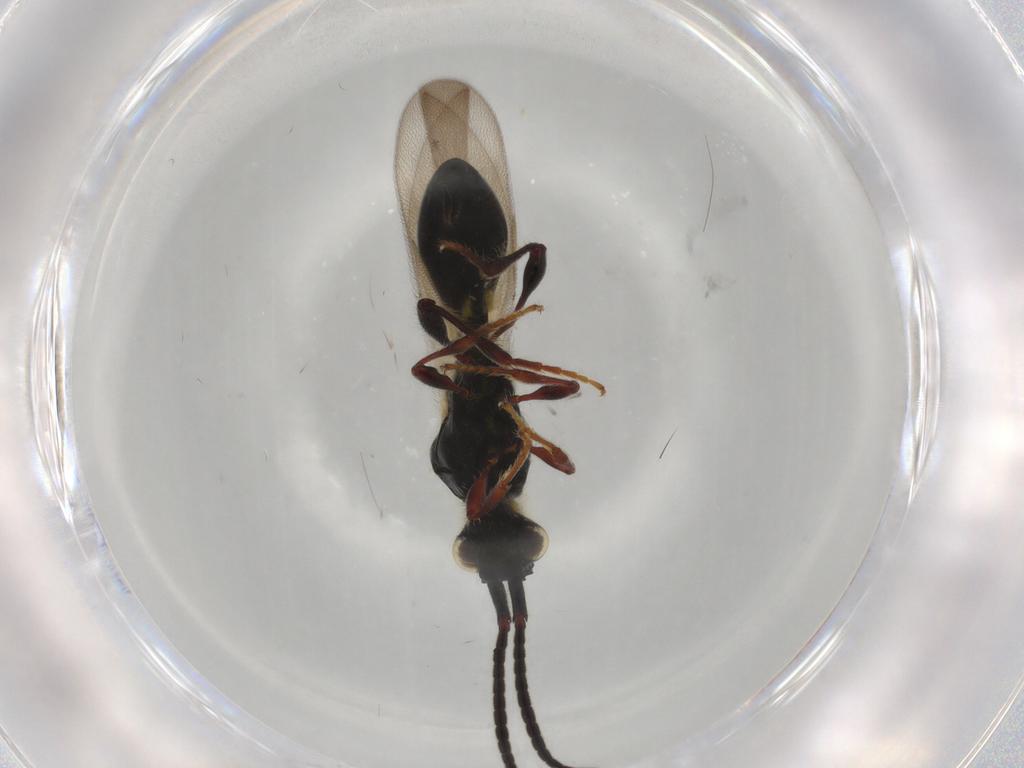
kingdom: Animalia
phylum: Arthropoda
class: Insecta
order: Hymenoptera
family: Diapriidae
